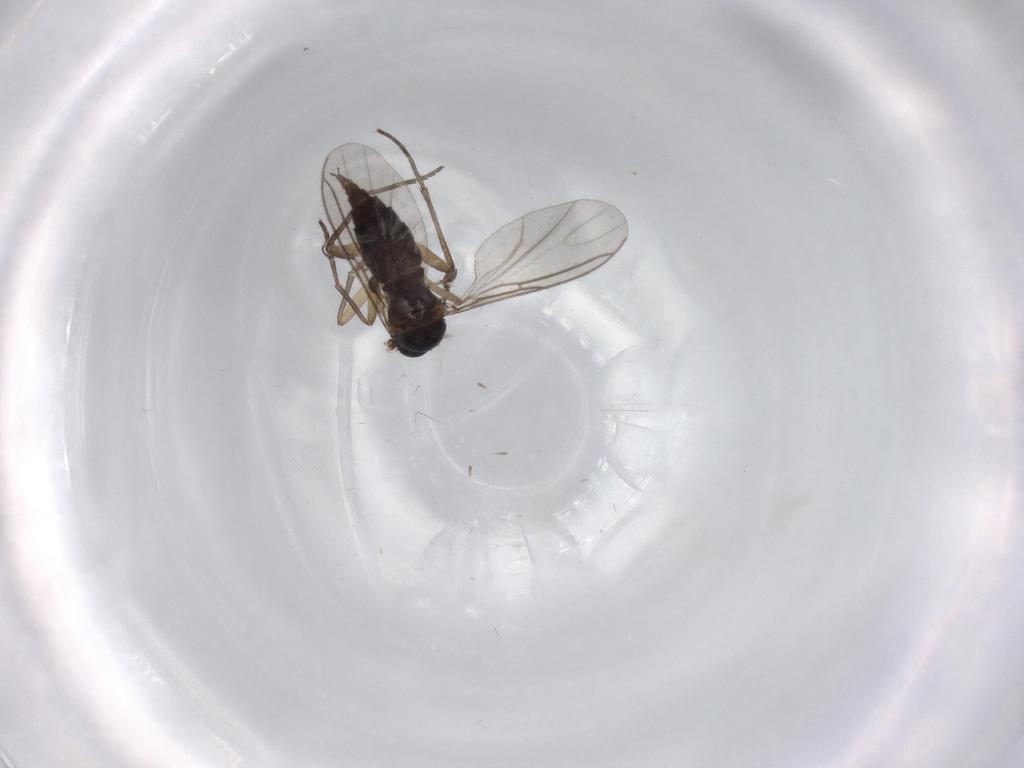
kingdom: Animalia
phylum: Arthropoda
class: Insecta
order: Diptera
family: Sciaridae
